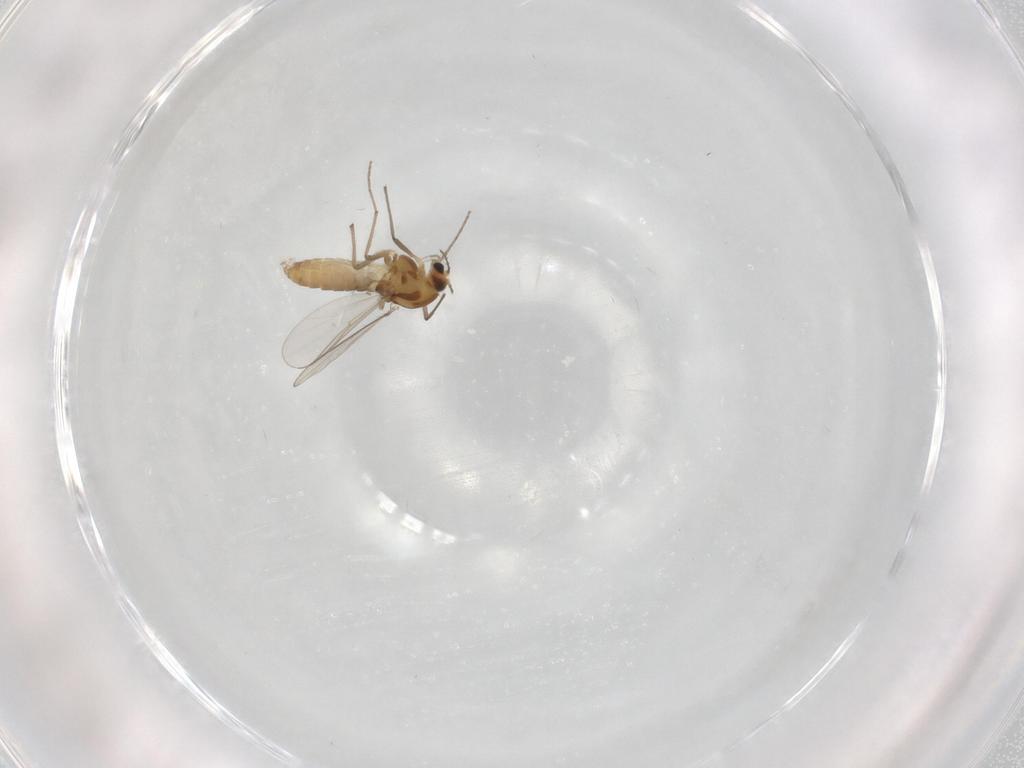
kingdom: Animalia
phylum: Arthropoda
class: Insecta
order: Diptera
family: Chironomidae
